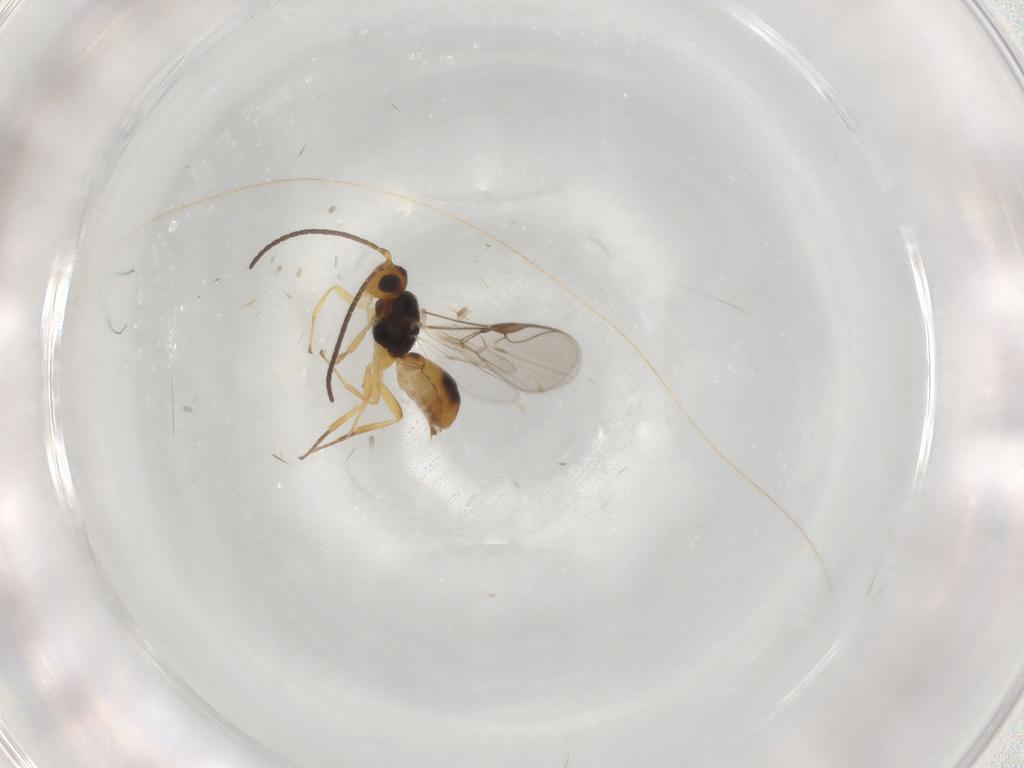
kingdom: Animalia
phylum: Arthropoda
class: Insecta
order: Hymenoptera
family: Braconidae
